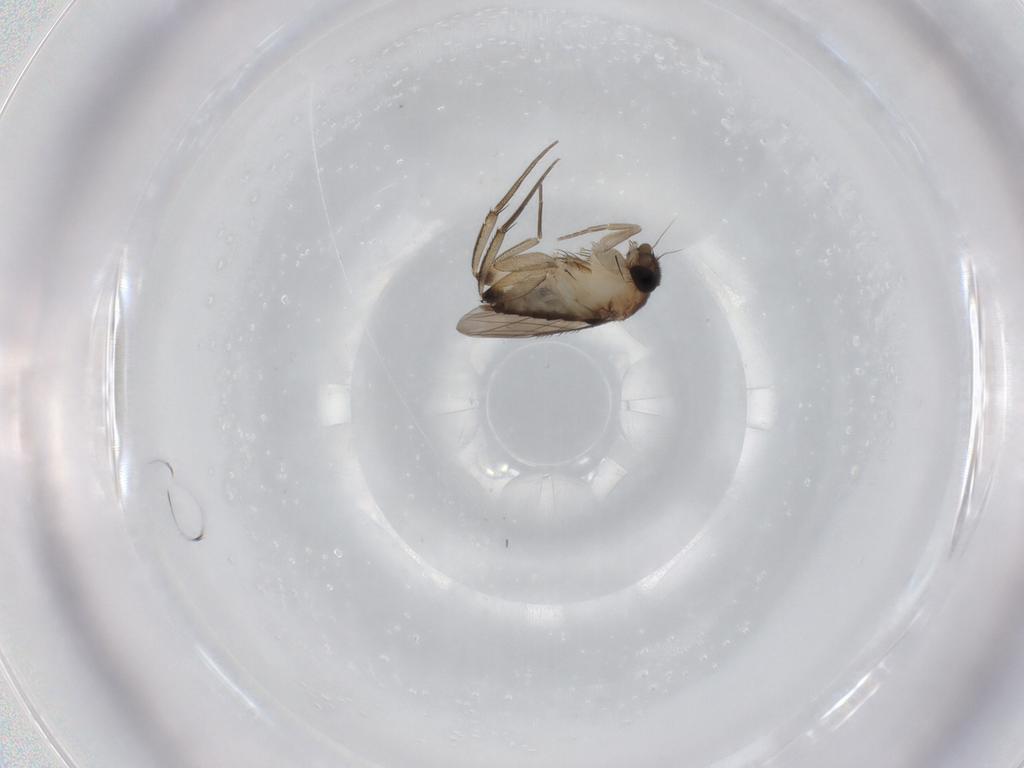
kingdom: Animalia
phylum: Arthropoda
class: Insecta
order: Diptera
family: Phoridae
